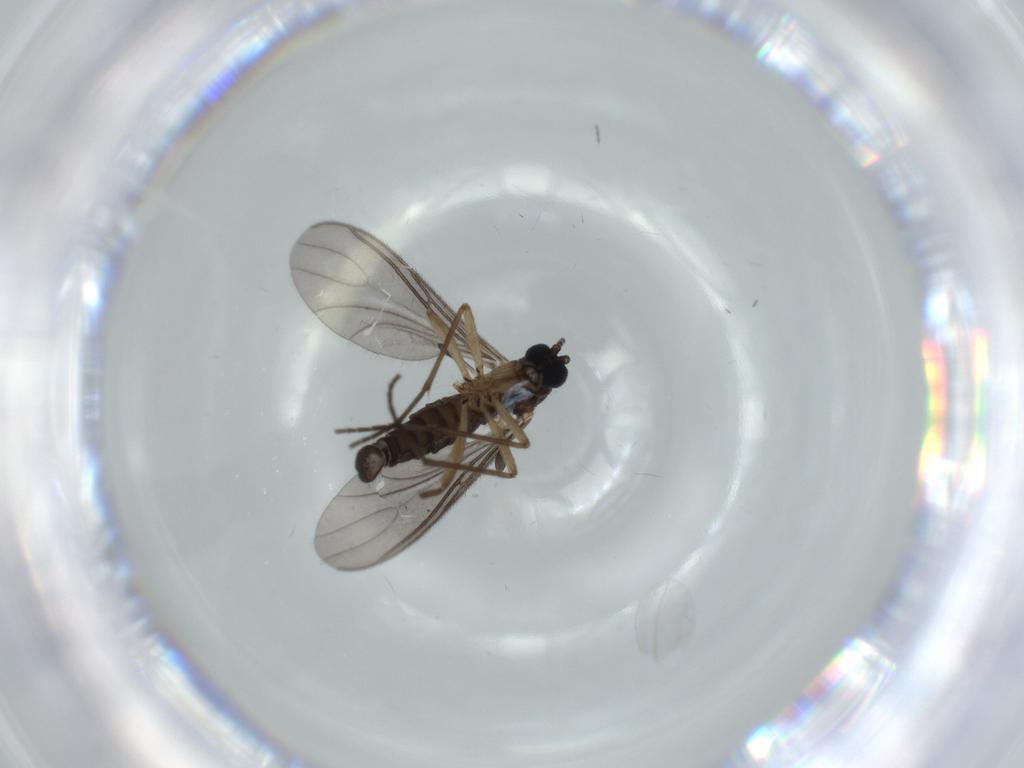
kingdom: Animalia
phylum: Arthropoda
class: Insecta
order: Diptera
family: Sciaridae
